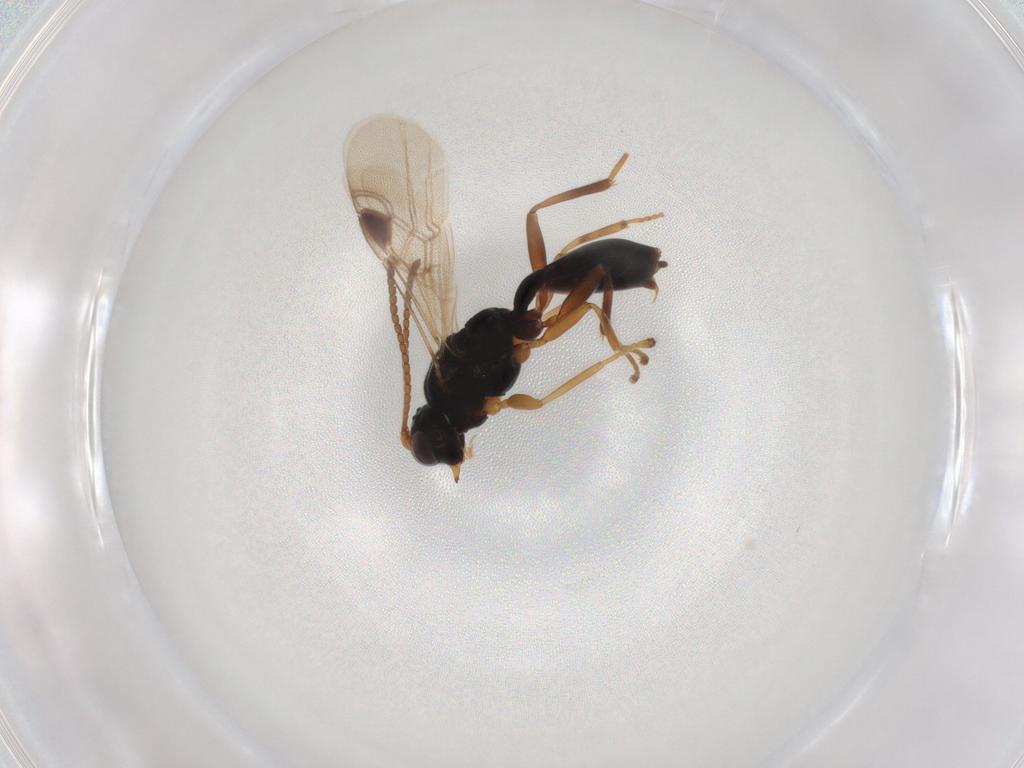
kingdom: Animalia
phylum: Arthropoda
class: Insecta
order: Hymenoptera
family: Braconidae
